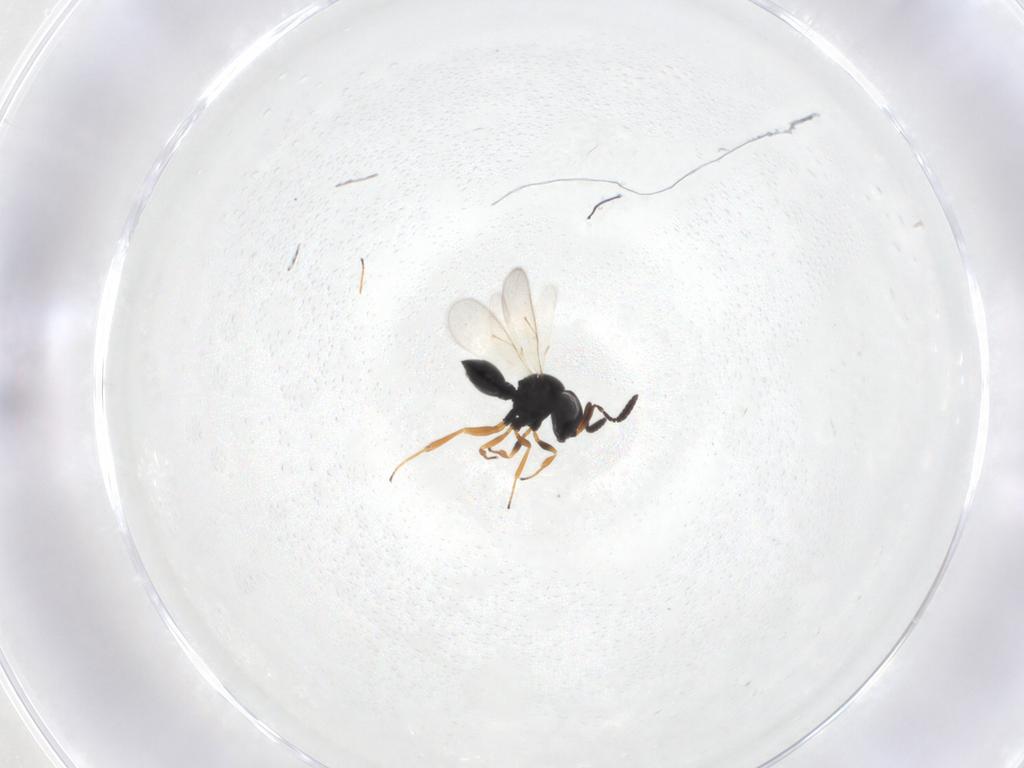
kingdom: Animalia
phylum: Arthropoda
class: Insecta
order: Hymenoptera
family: Scelionidae
